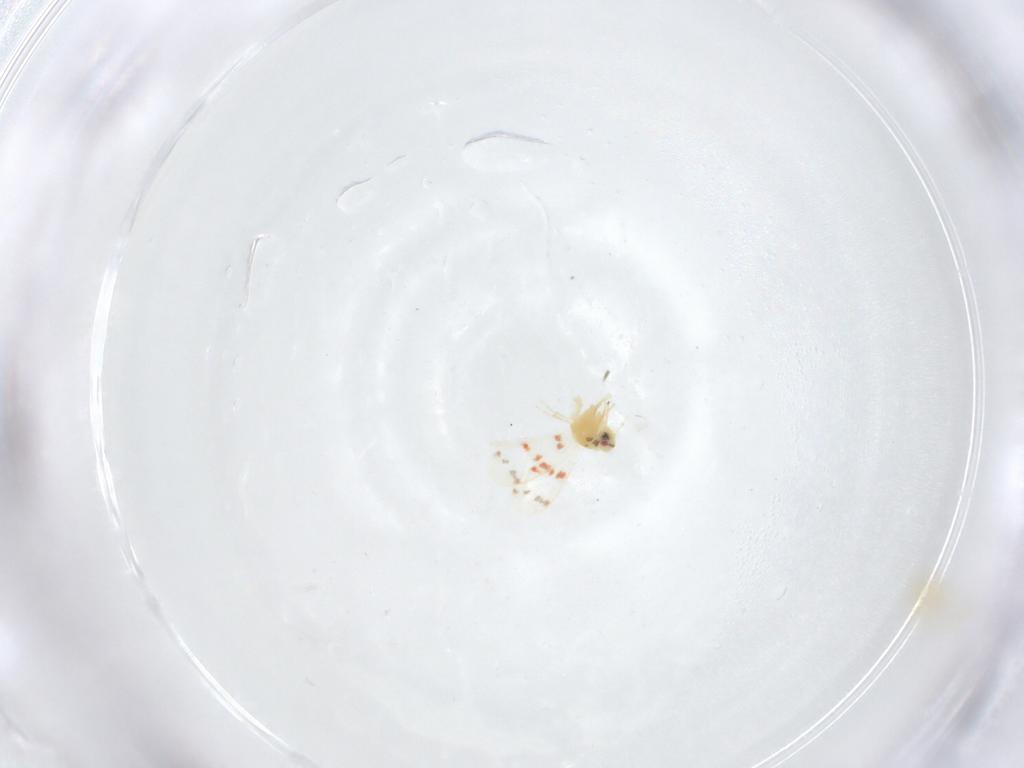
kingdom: Animalia
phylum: Arthropoda
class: Insecta
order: Hemiptera
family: Aleyrodidae
